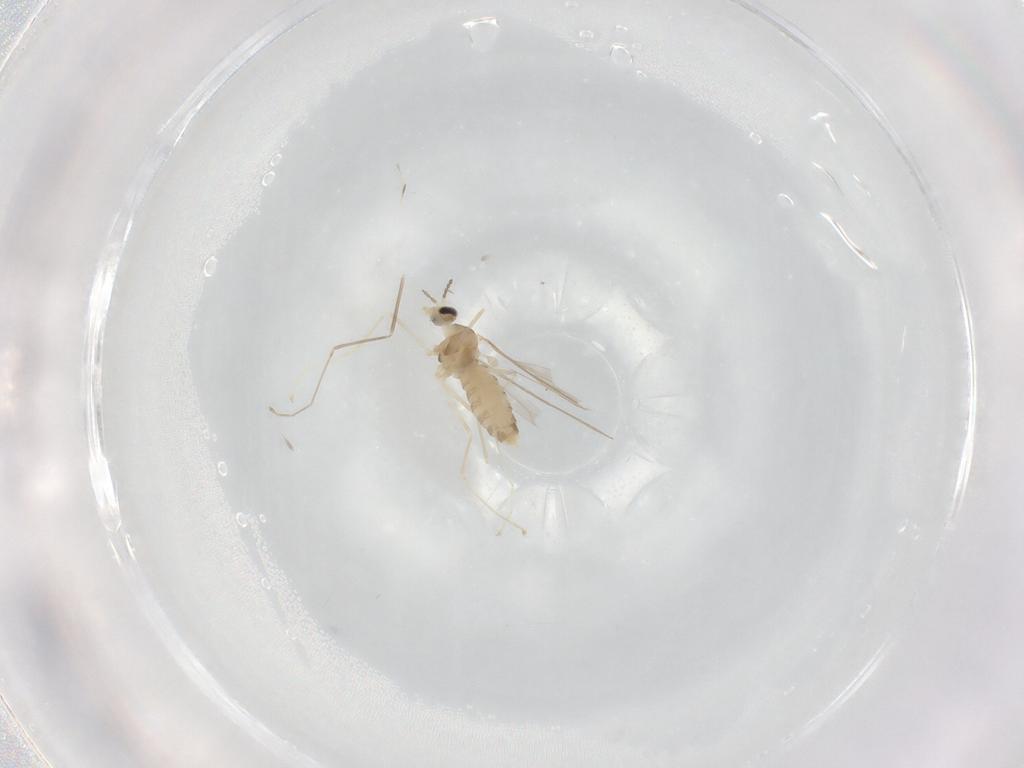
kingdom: Animalia
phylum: Arthropoda
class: Insecta
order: Diptera
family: Cecidomyiidae
